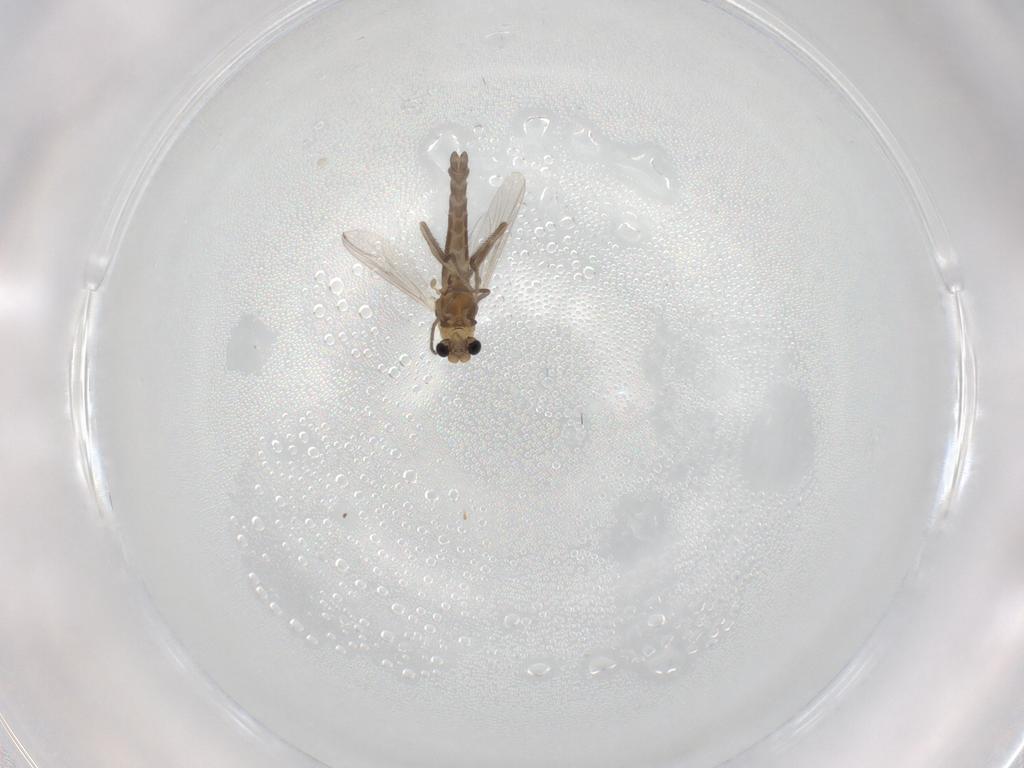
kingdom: Animalia
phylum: Arthropoda
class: Insecta
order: Diptera
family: Chironomidae
